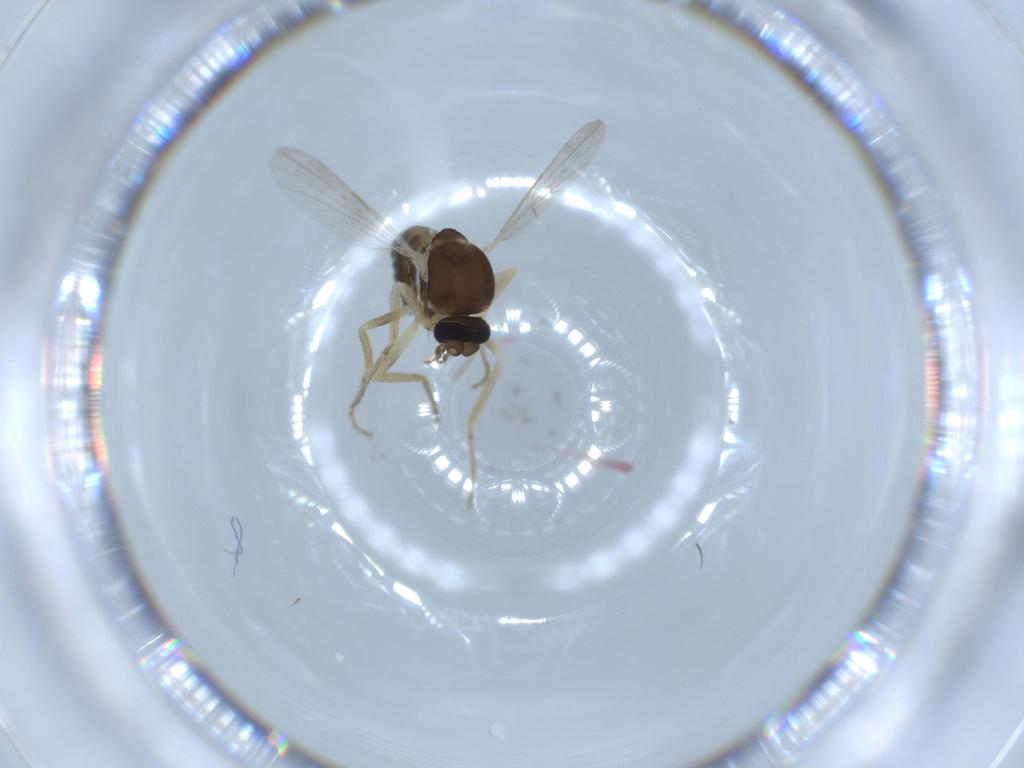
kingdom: Animalia
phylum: Arthropoda
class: Insecta
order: Diptera
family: Ceratopogonidae
